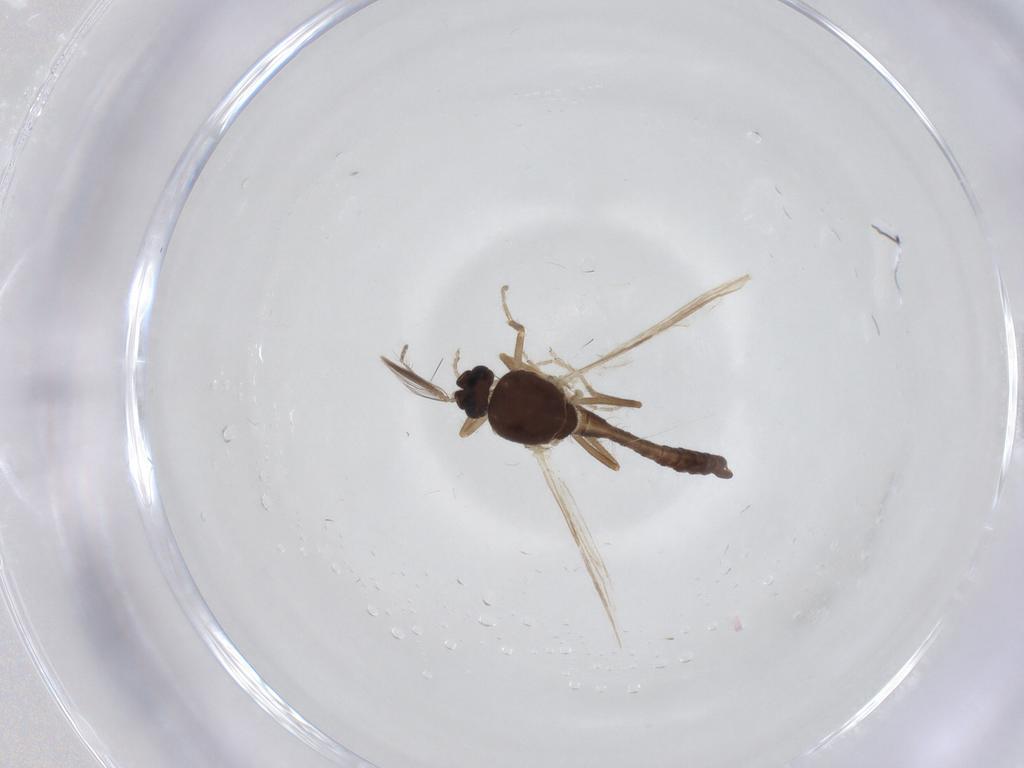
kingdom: Animalia
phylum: Arthropoda
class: Insecta
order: Diptera
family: Ceratopogonidae
